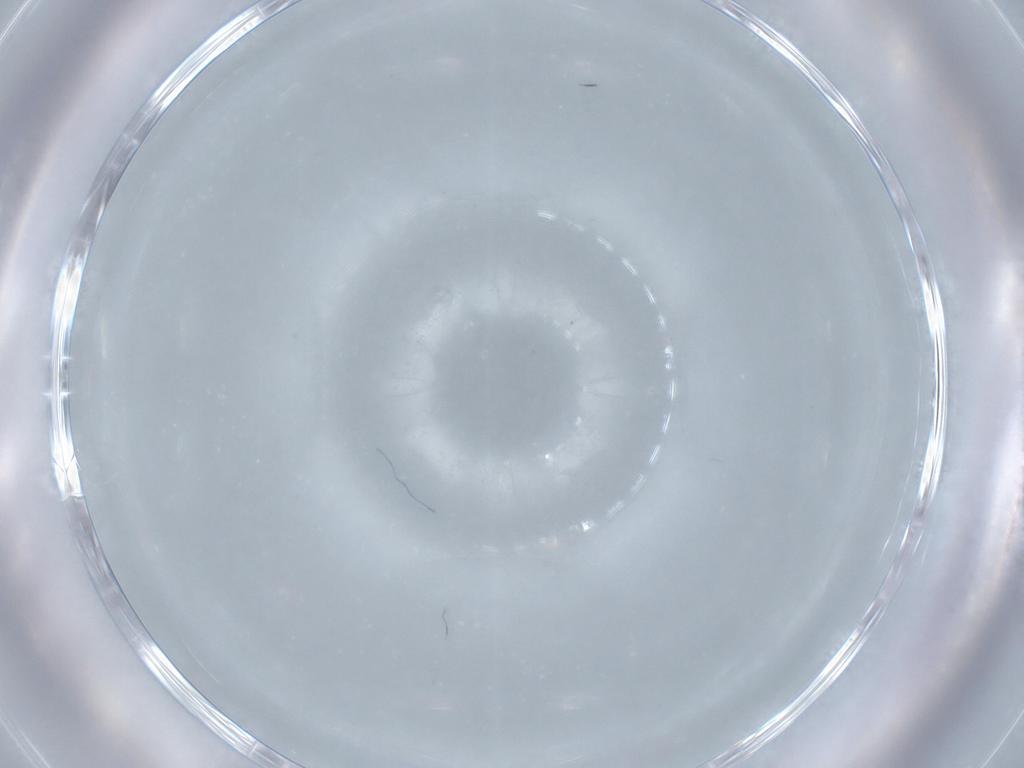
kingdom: Animalia
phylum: Arthropoda
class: Insecta
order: Diptera
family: Sciaridae
